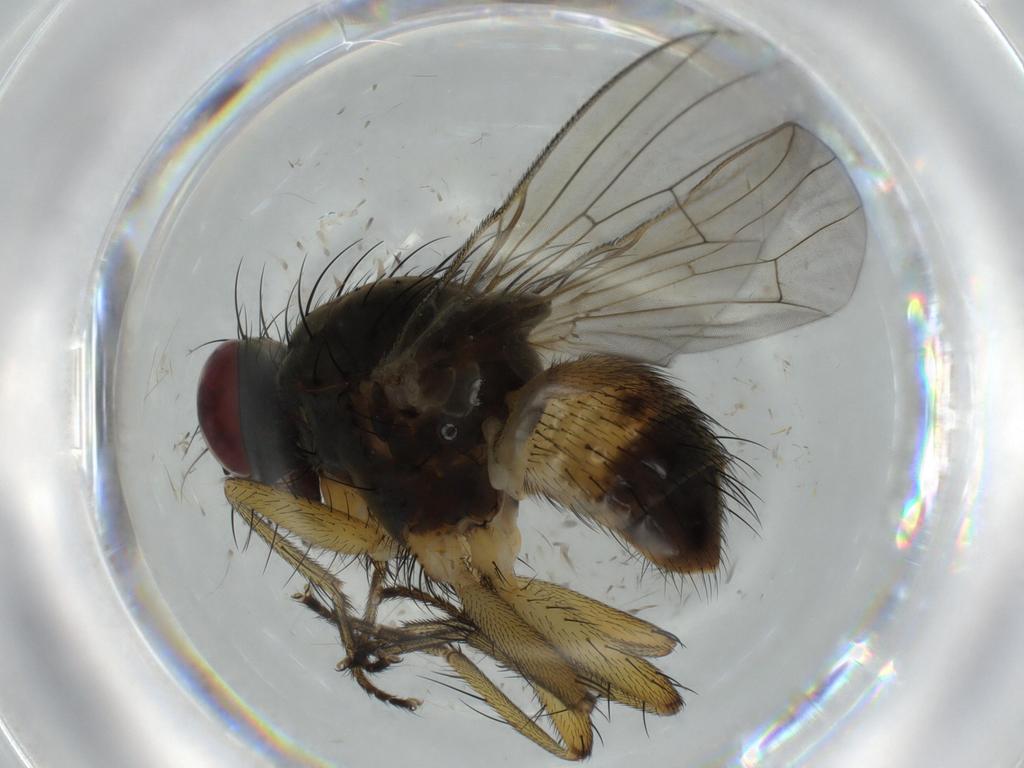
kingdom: Animalia
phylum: Arthropoda
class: Insecta
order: Diptera
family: Muscidae
